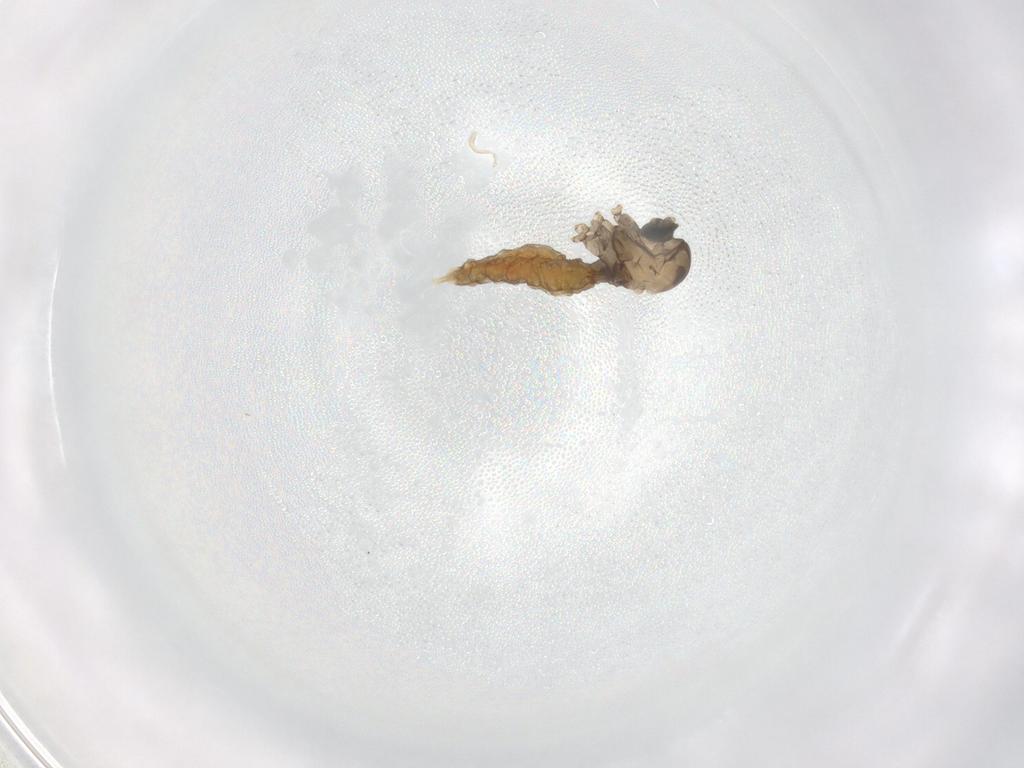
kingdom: Animalia
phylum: Arthropoda
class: Insecta
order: Diptera
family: Cecidomyiidae
